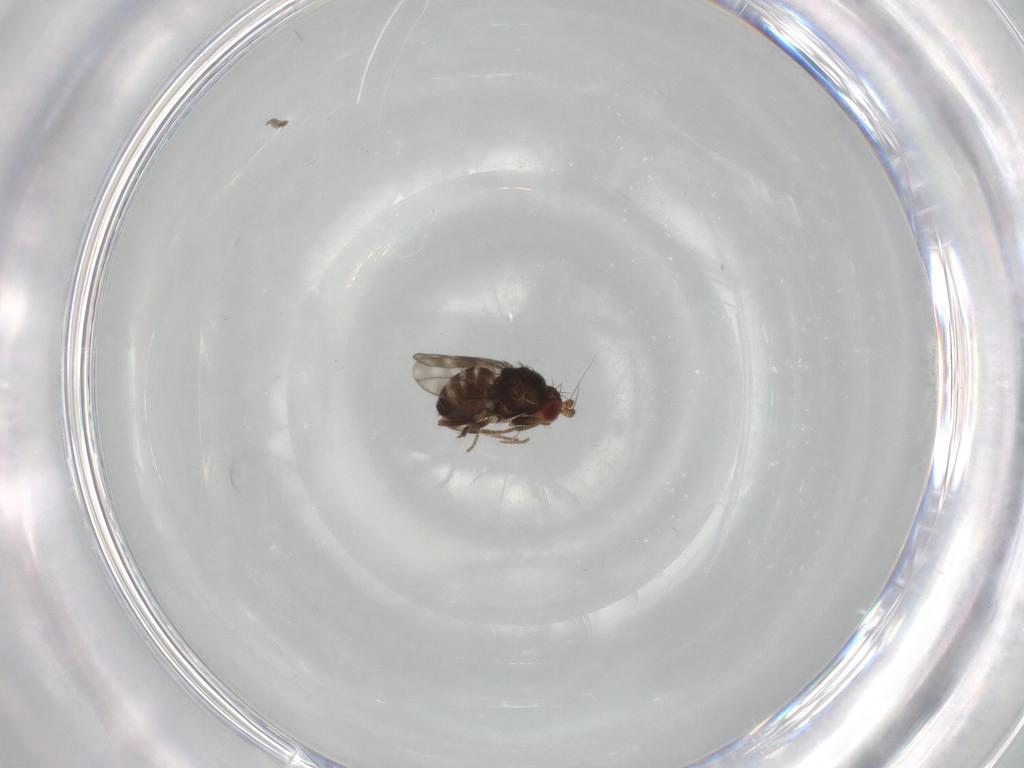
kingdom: Animalia
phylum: Arthropoda
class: Insecta
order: Diptera
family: Sphaeroceridae
